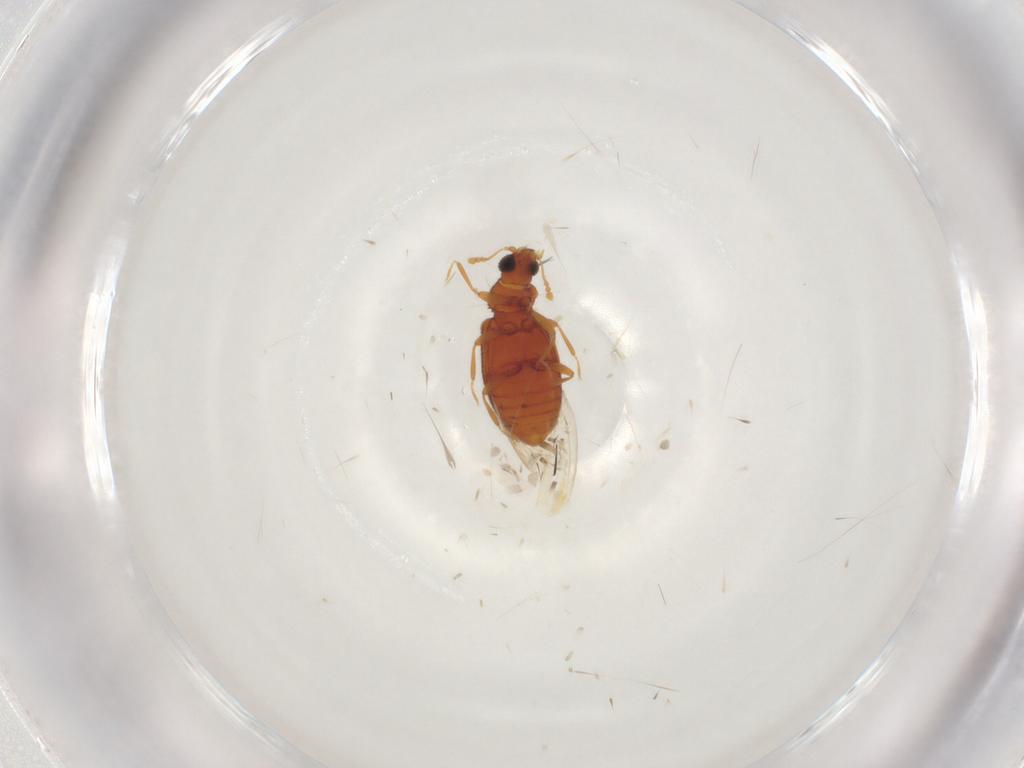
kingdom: Animalia
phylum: Arthropoda
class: Insecta
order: Coleoptera
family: Latridiidae
